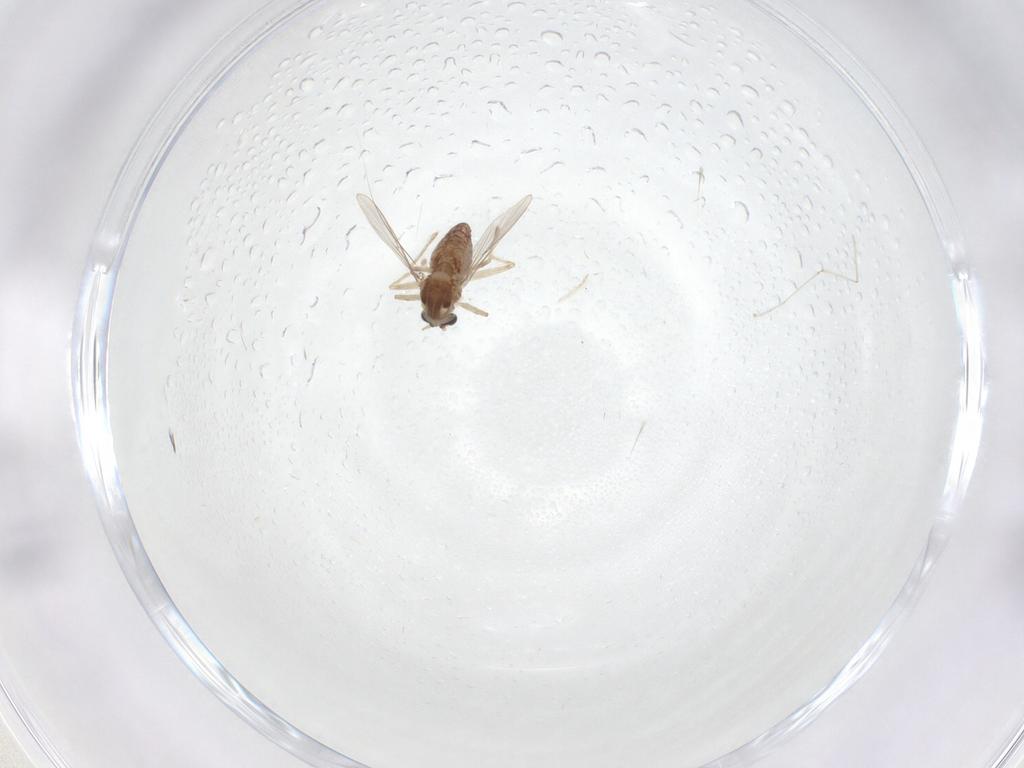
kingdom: Animalia
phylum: Arthropoda
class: Insecta
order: Diptera
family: Chironomidae
